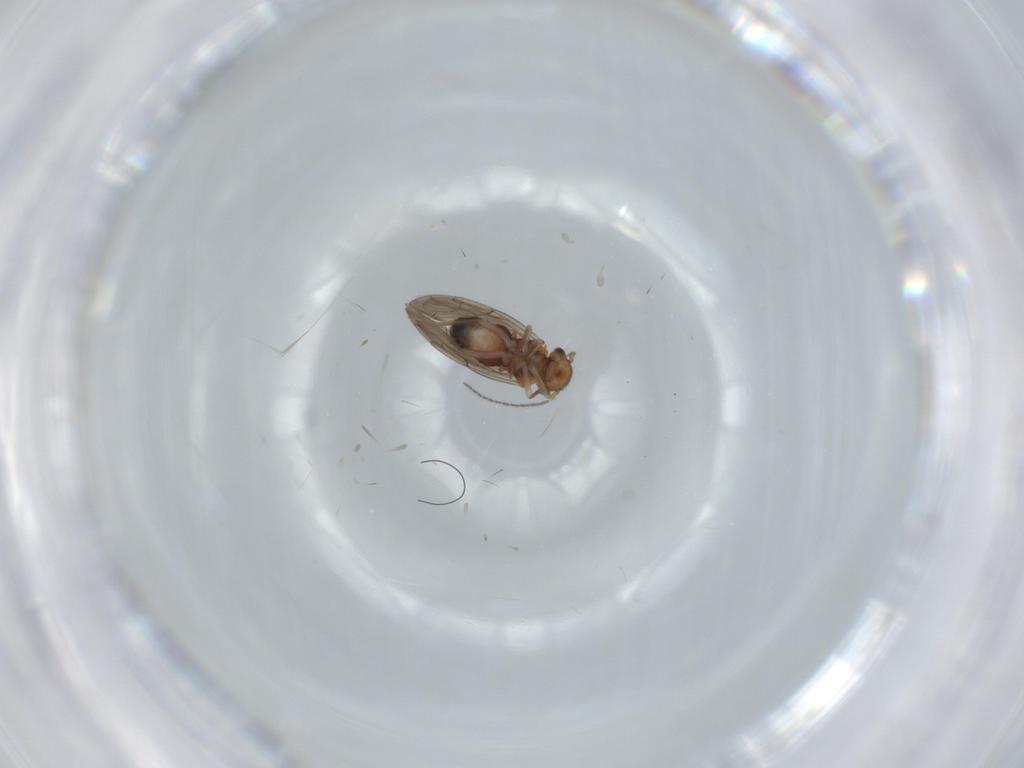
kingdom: Animalia
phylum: Arthropoda
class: Insecta
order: Psocodea
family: Ectopsocidae
